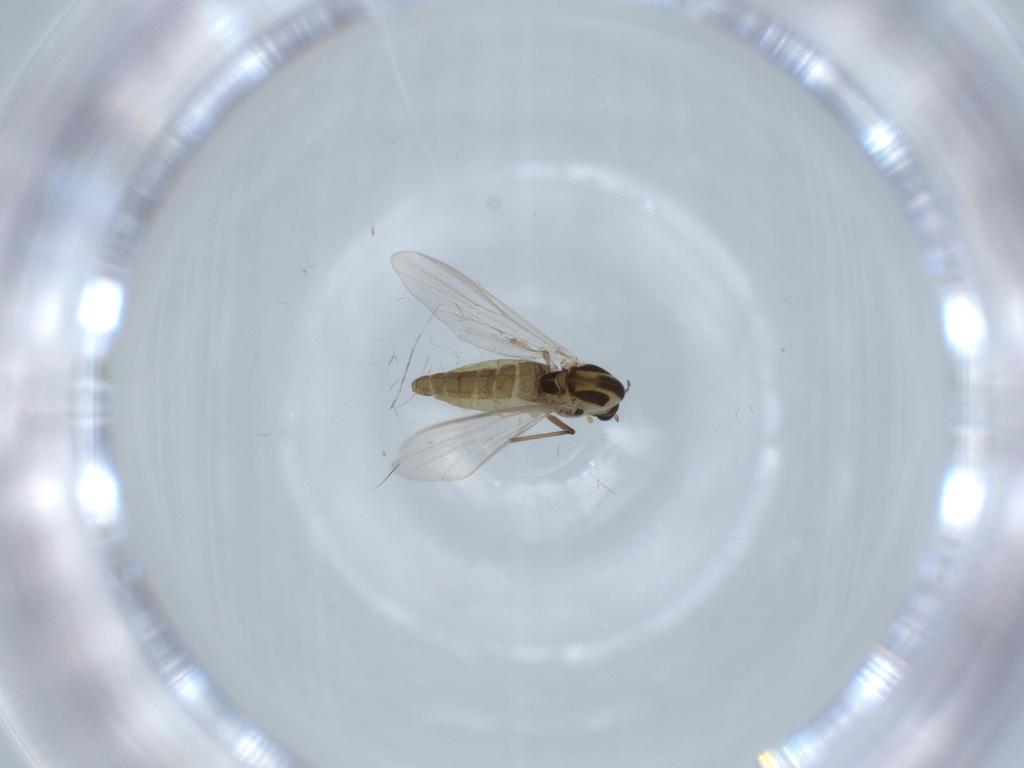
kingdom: Animalia
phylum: Arthropoda
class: Insecta
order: Diptera
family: Chironomidae
